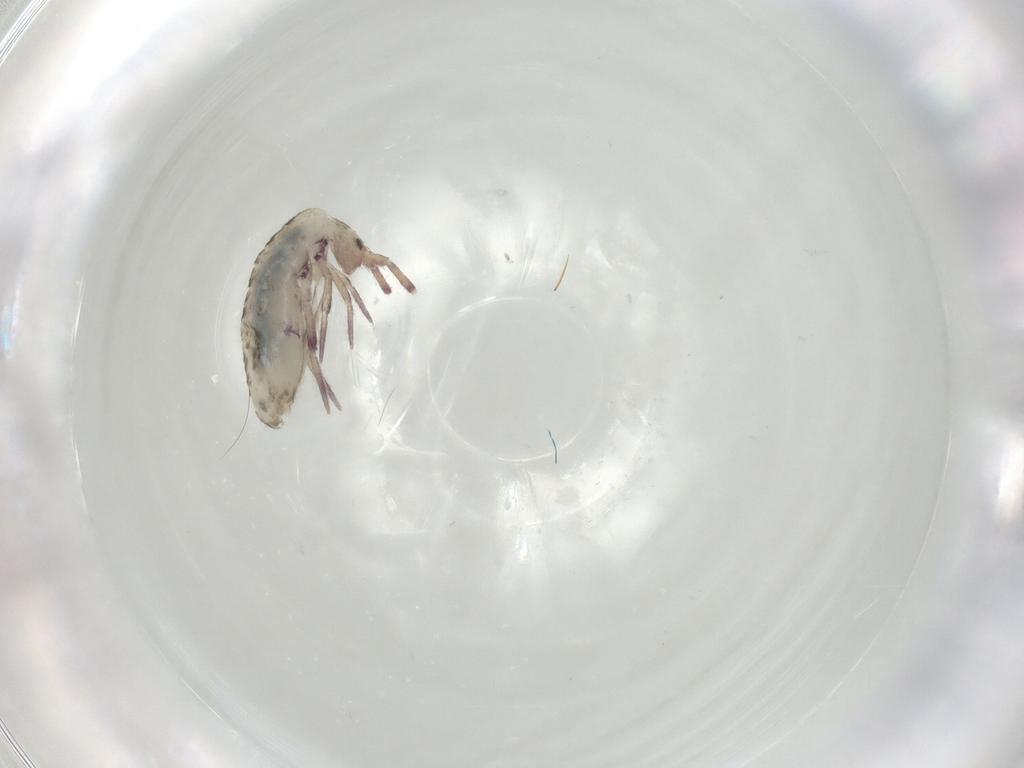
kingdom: Animalia
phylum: Arthropoda
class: Collembola
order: Entomobryomorpha
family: Entomobryidae
